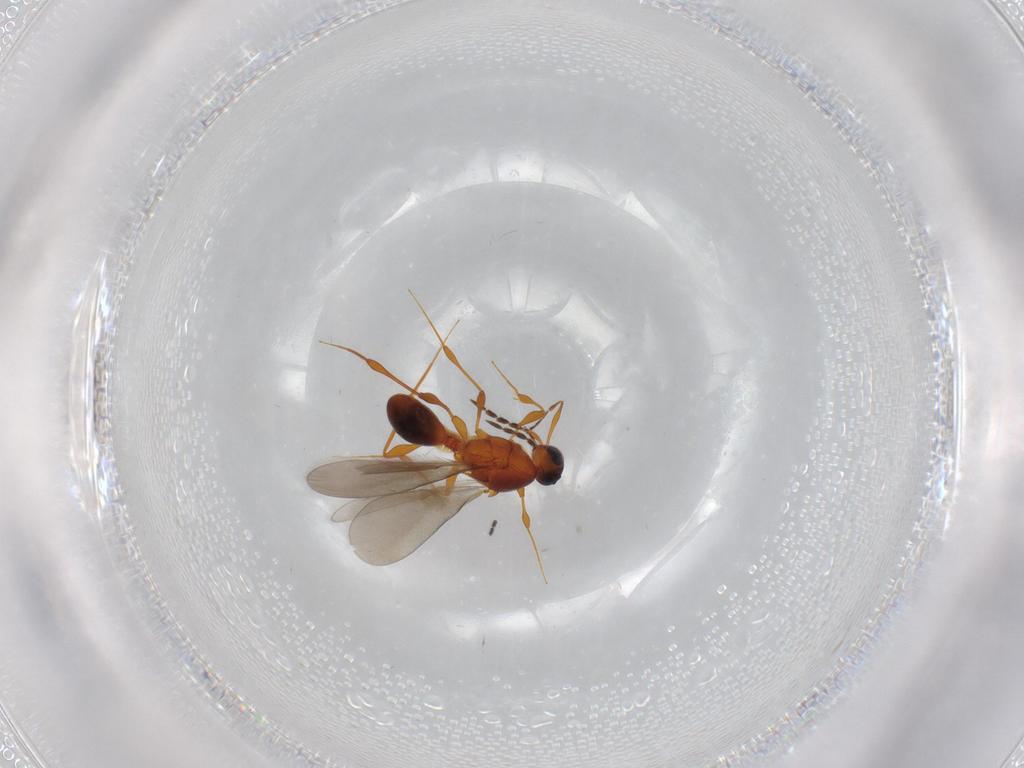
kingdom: Animalia
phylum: Arthropoda
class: Insecta
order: Hymenoptera
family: Platygastridae
